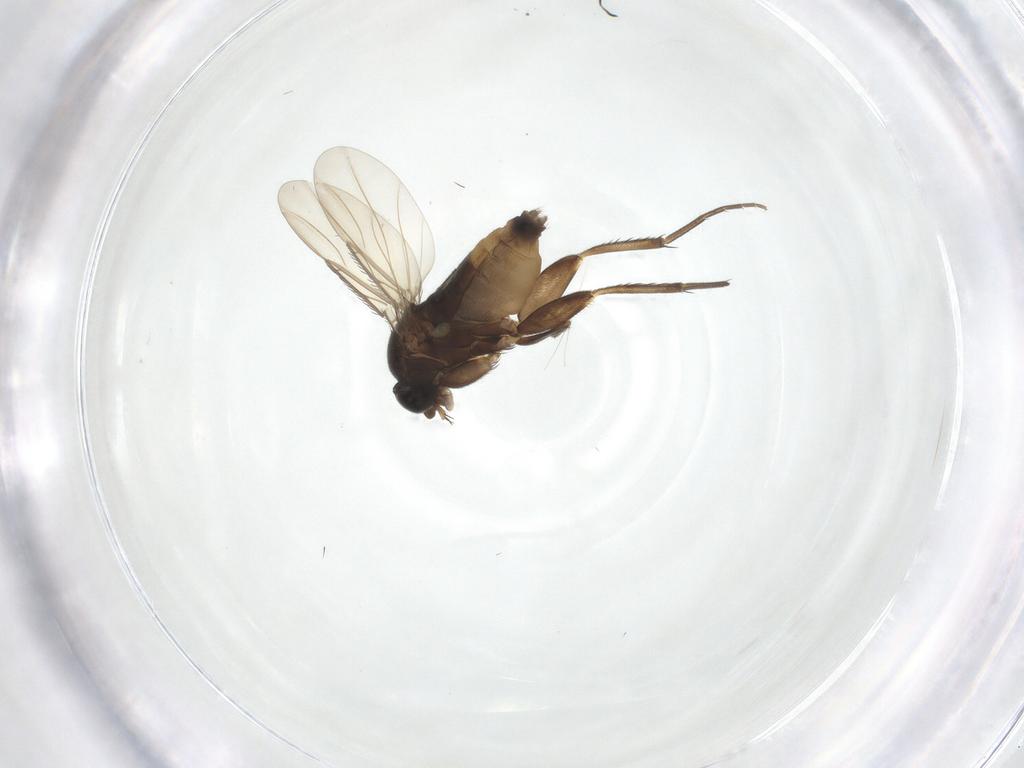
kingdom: Animalia
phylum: Arthropoda
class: Insecta
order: Diptera
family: Phoridae
